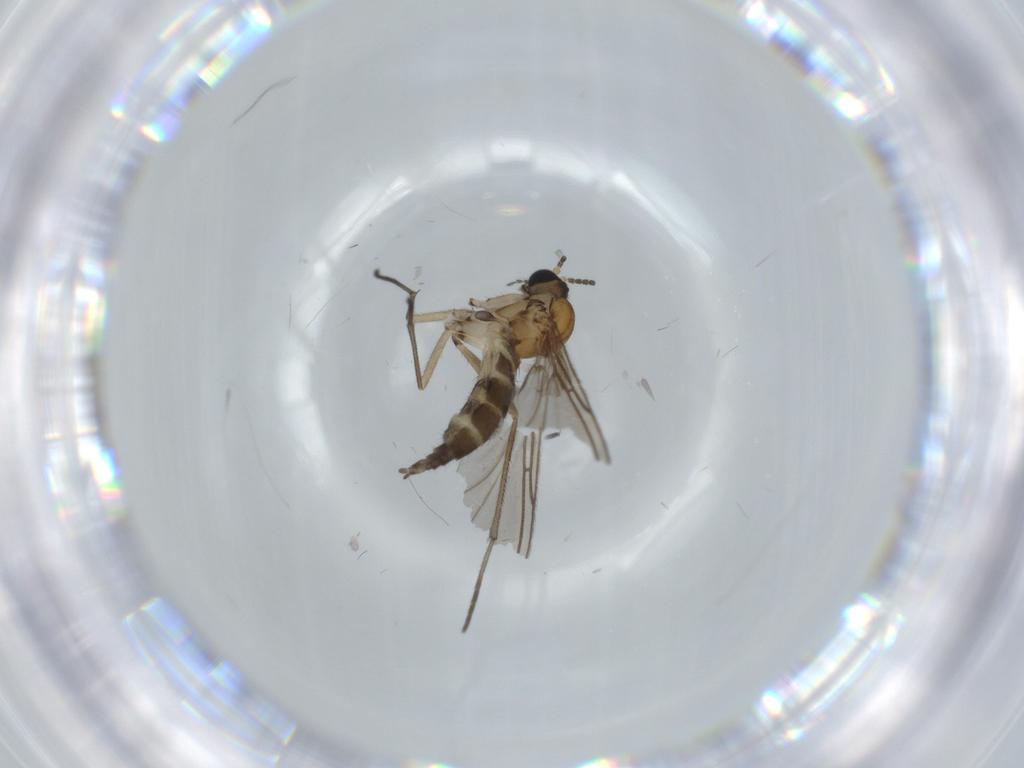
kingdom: Animalia
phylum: Arthropoda
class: Insecta
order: Diptera
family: Sciaridae
